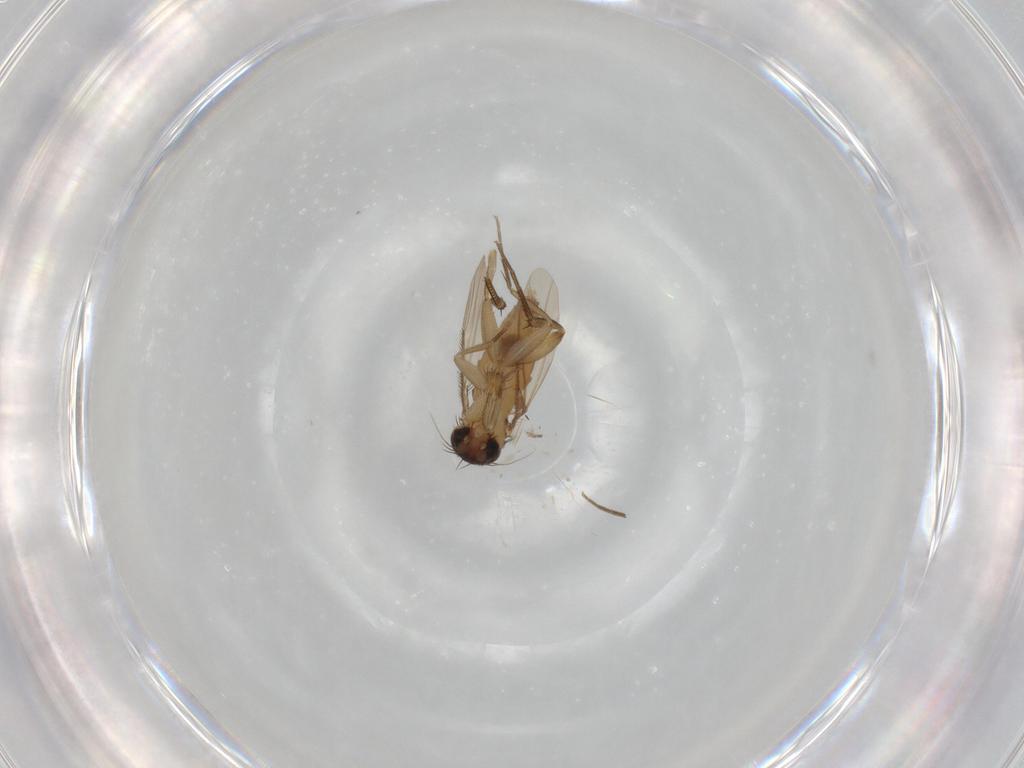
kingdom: Animalia
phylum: Arthropoda
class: Insecta
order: Diptera
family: Phoridae
